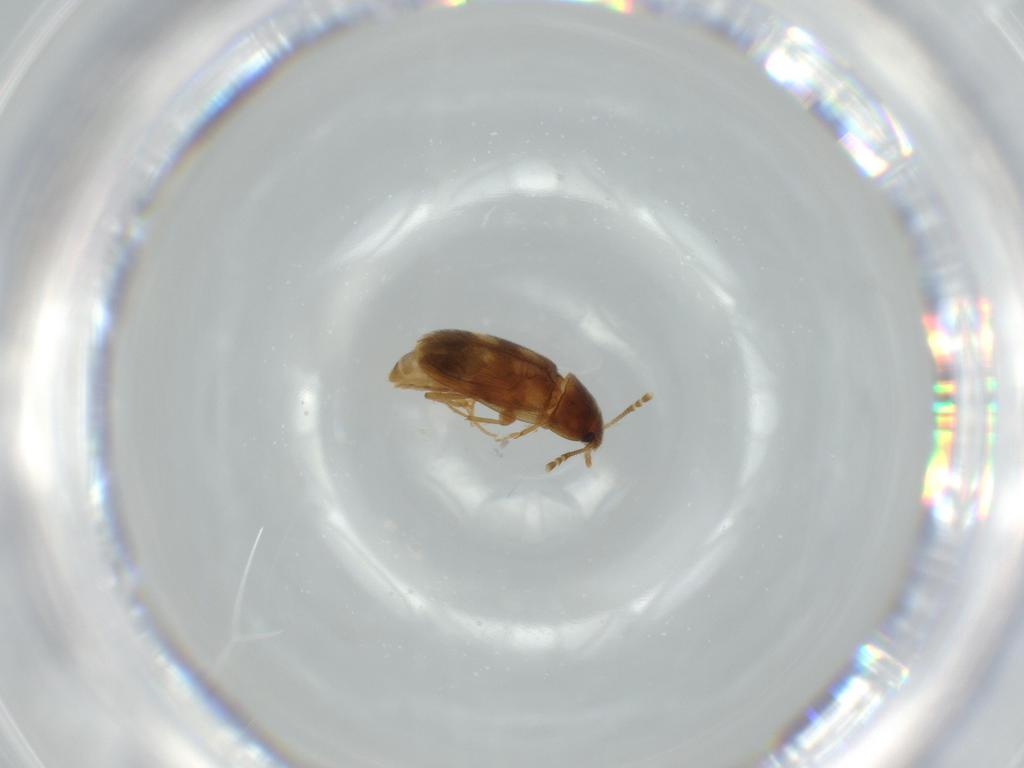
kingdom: Animalia
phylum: Arthropoda
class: Insecta
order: Coleoptera
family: Mycetophagidae
